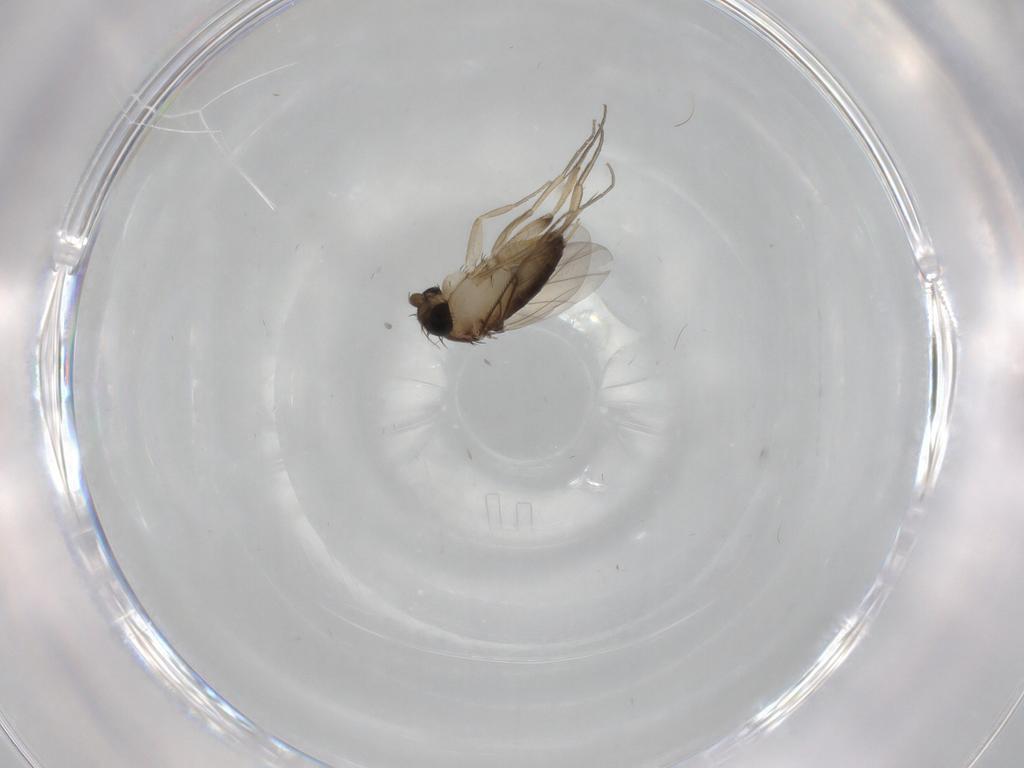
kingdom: Animalia
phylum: Arthropoda
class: Insecta
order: Diptera
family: Phoridae
